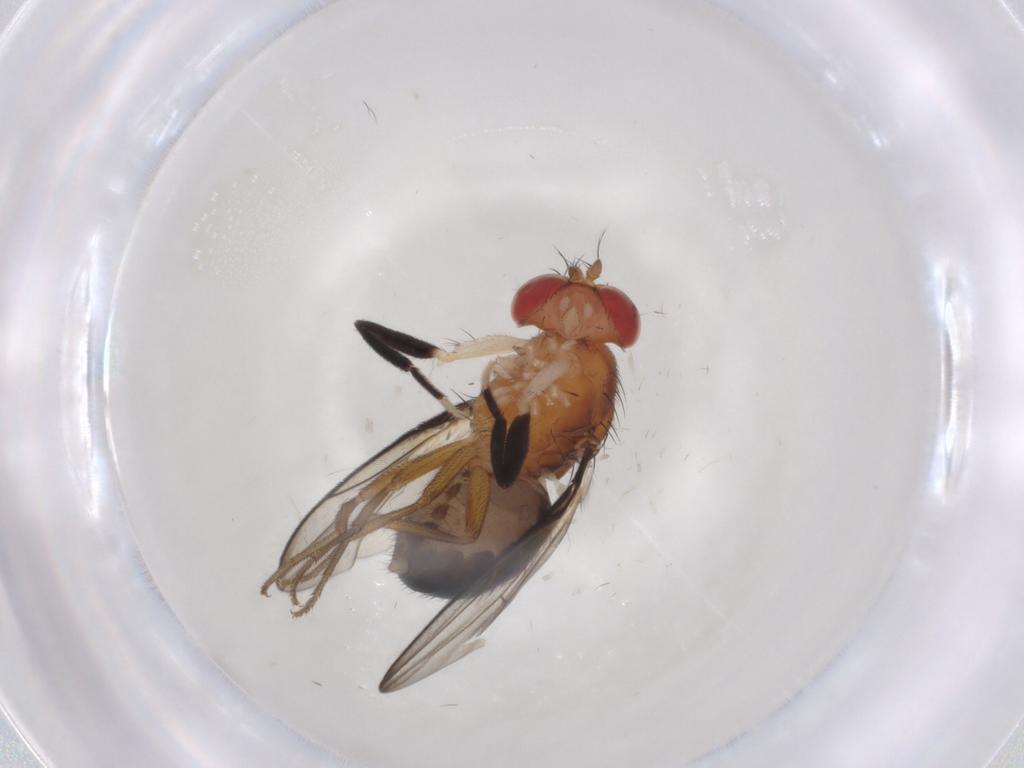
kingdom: Animalia
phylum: Arthropoda
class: Insecta
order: Diptera
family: Drosophilidae
